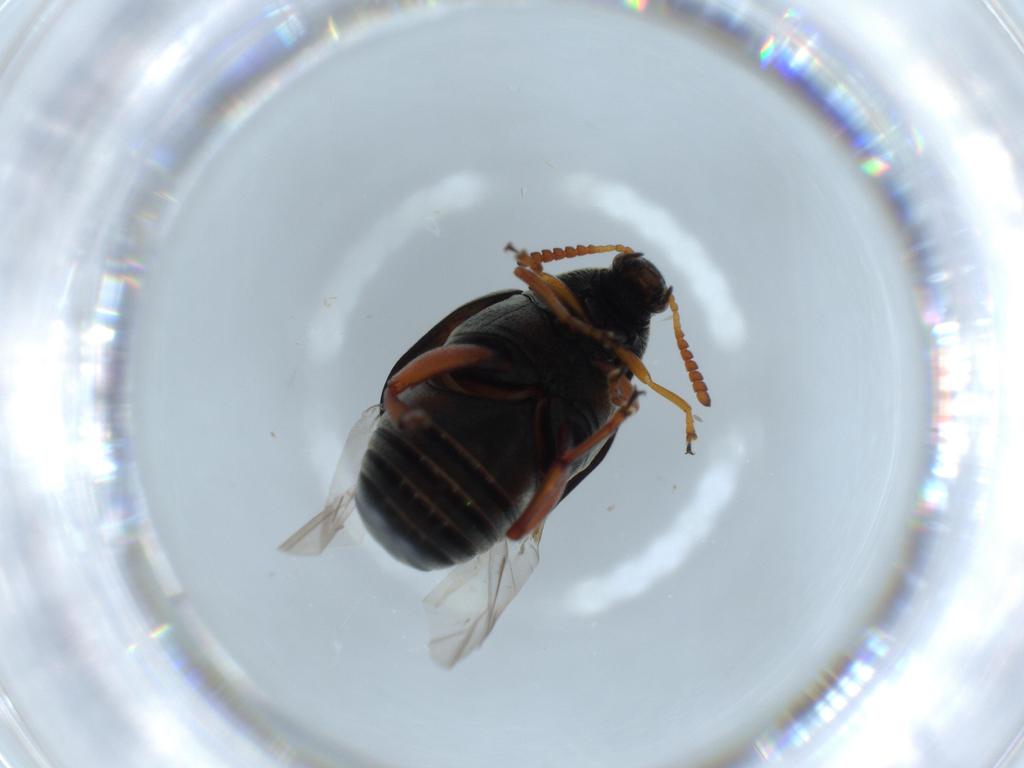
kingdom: Animalia
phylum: Arthropoda
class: Insecta
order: Coleoptera
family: Chrysomelidae
